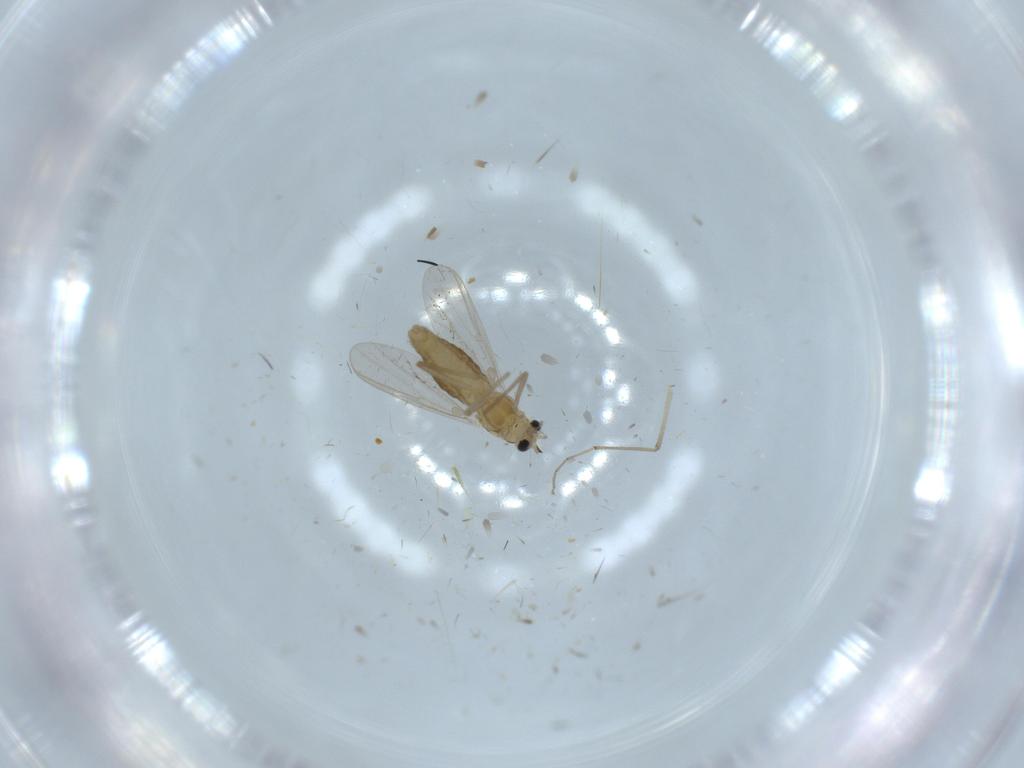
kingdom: Animalia
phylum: Arthropoda
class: Insecta
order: Diptera
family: Chironomidae
